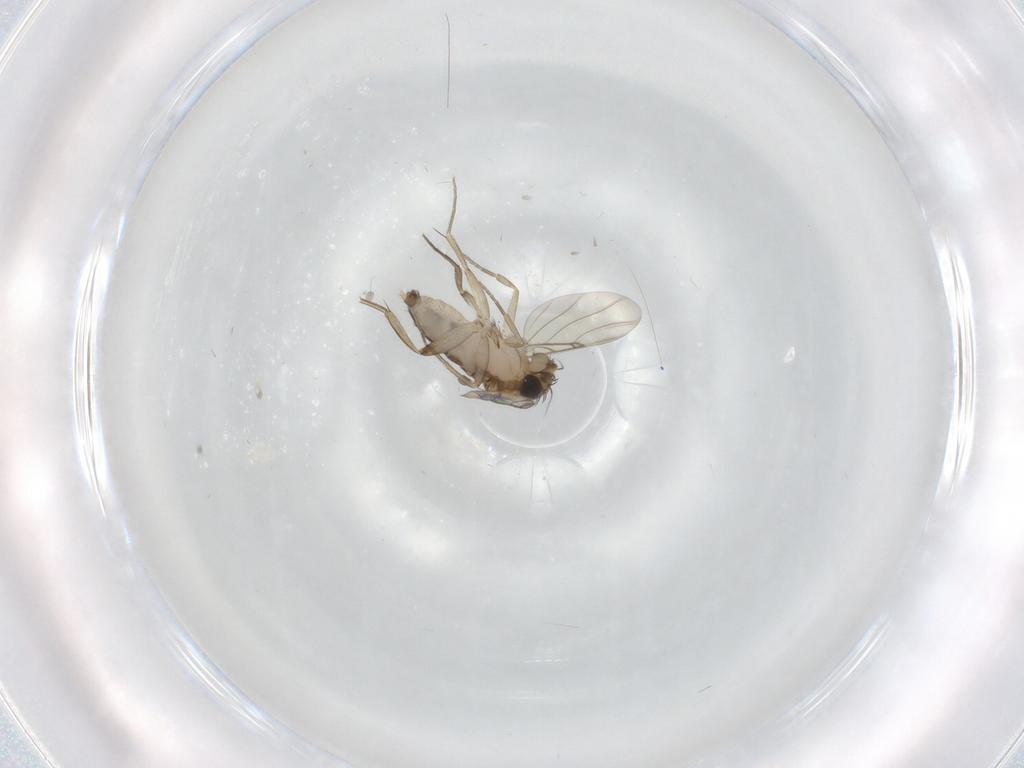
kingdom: Animalia
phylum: Arthropoda
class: Insecta
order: Diptera
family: Phoridae
